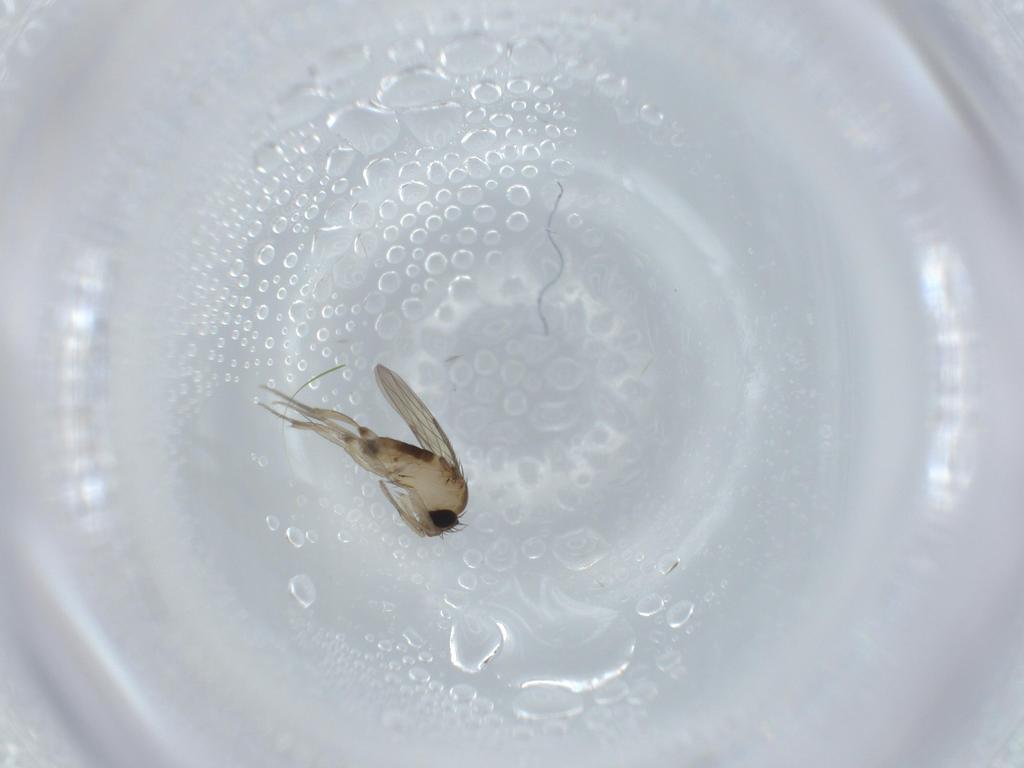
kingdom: Animalia
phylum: Arthropoda
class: Insecta
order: Diptera
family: Phoridae
